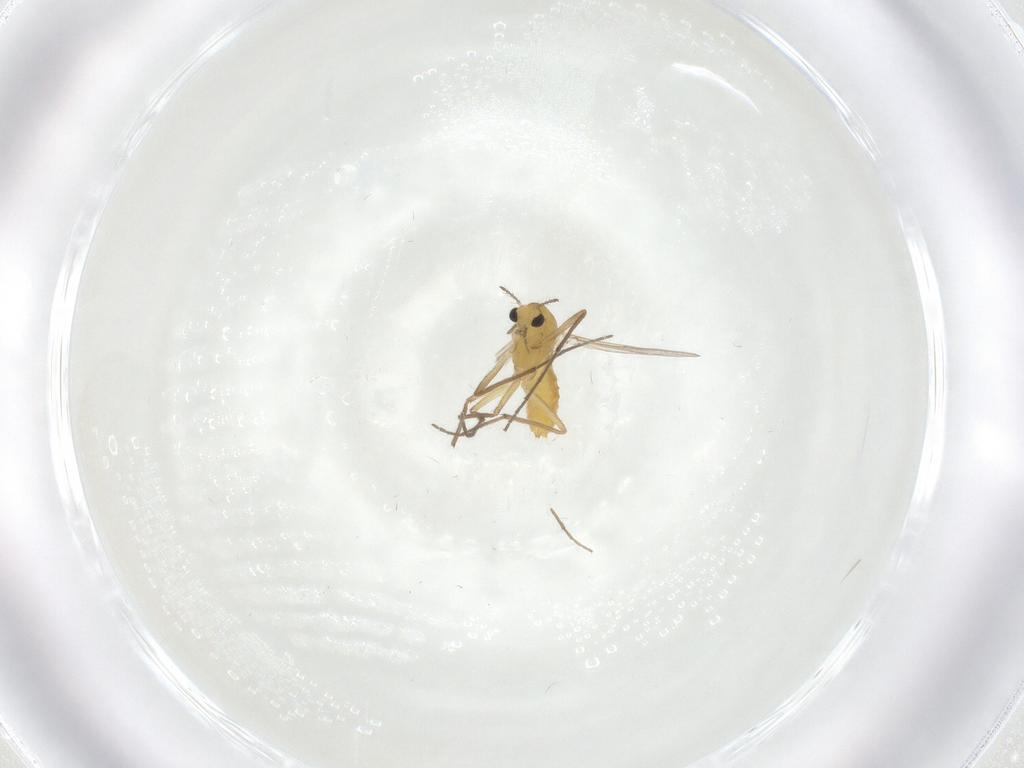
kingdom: Animalia
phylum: Arthropoda
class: Insecta
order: Diptera
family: Chironomidae
